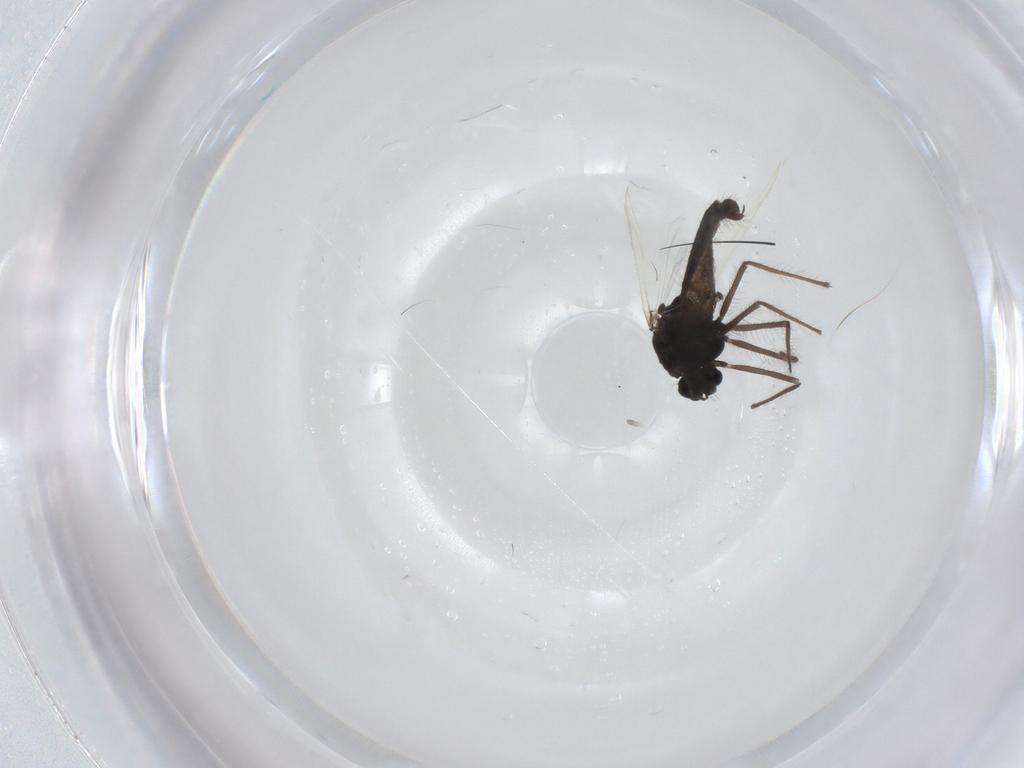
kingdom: Animalia
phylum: Arthropoda
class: Insecta
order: Diptera
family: Chironomidae
